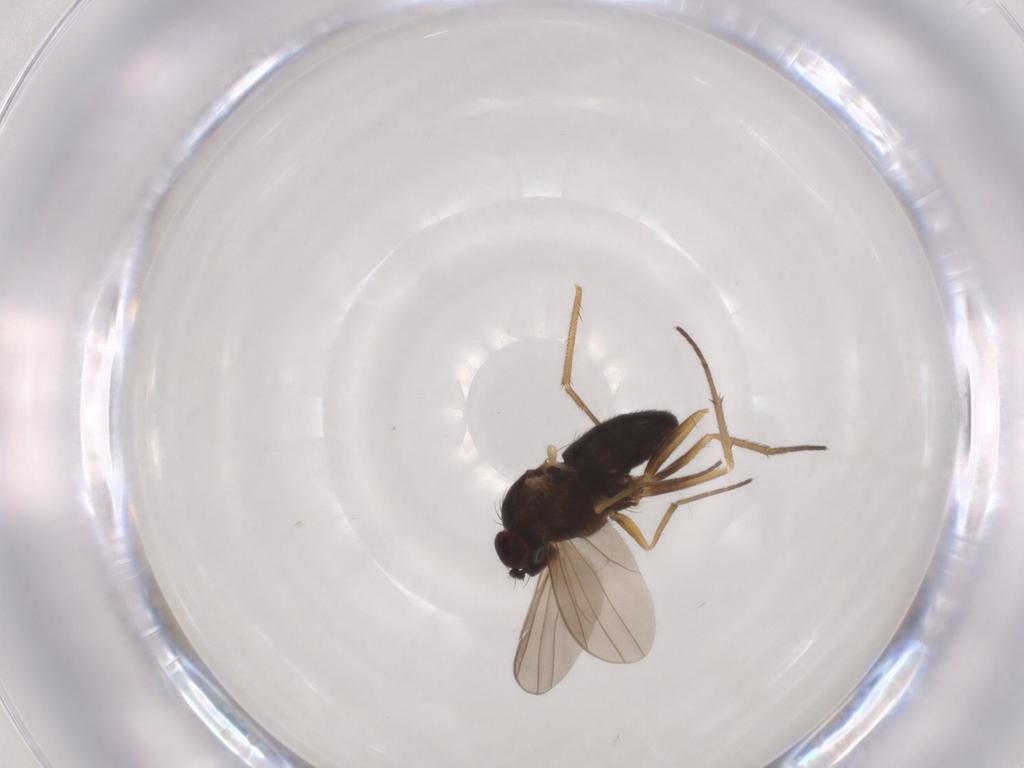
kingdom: Animalia
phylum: Arthropoda
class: Insecta
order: Diptera
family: Dolichopodidae
